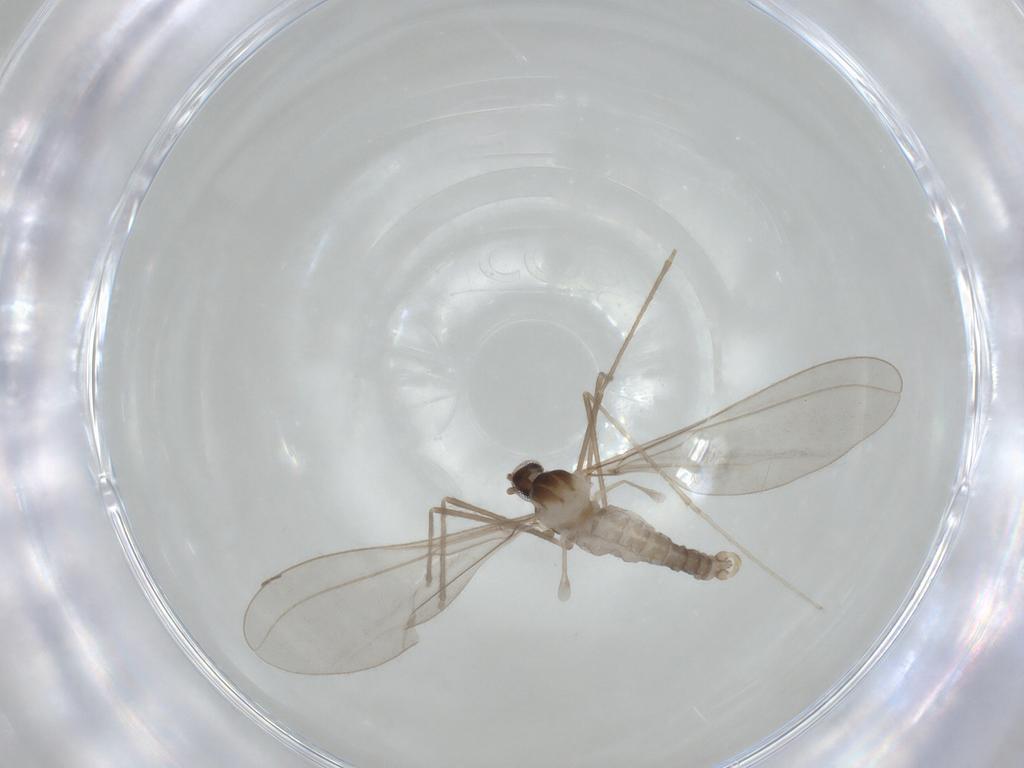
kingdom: Animalia
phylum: Arthropoda
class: Insecta
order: Diptera
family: Cecidomyiidae
